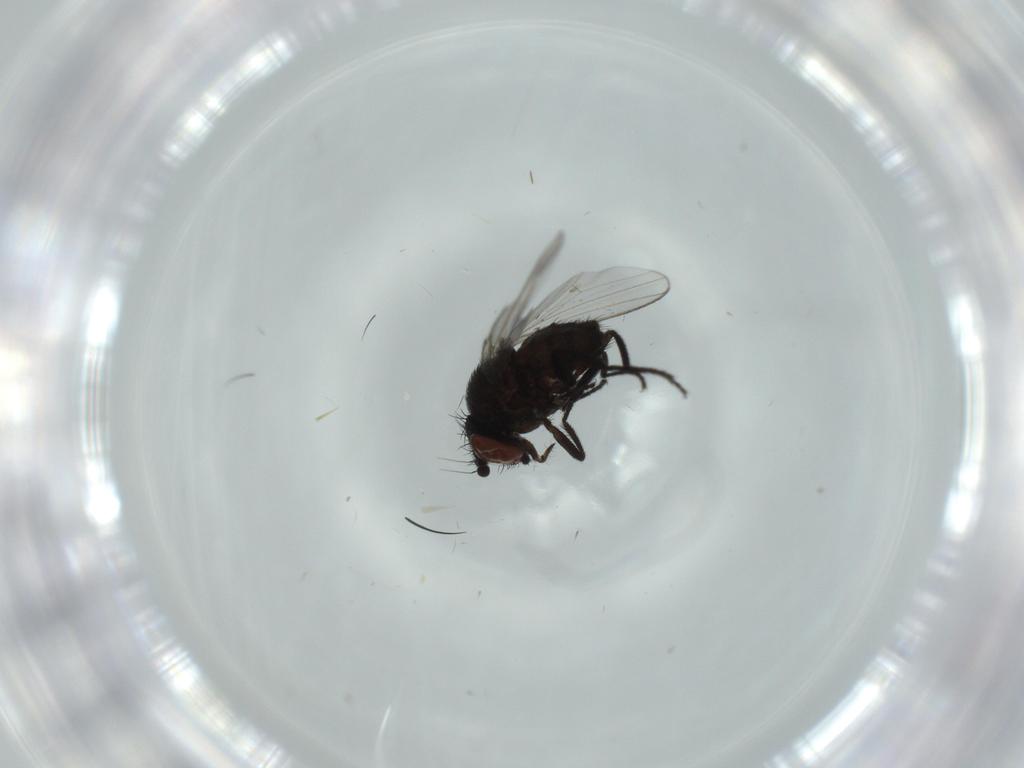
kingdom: Animalia
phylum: Arthropoda
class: Insecta
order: Diptera
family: Milichiidae
